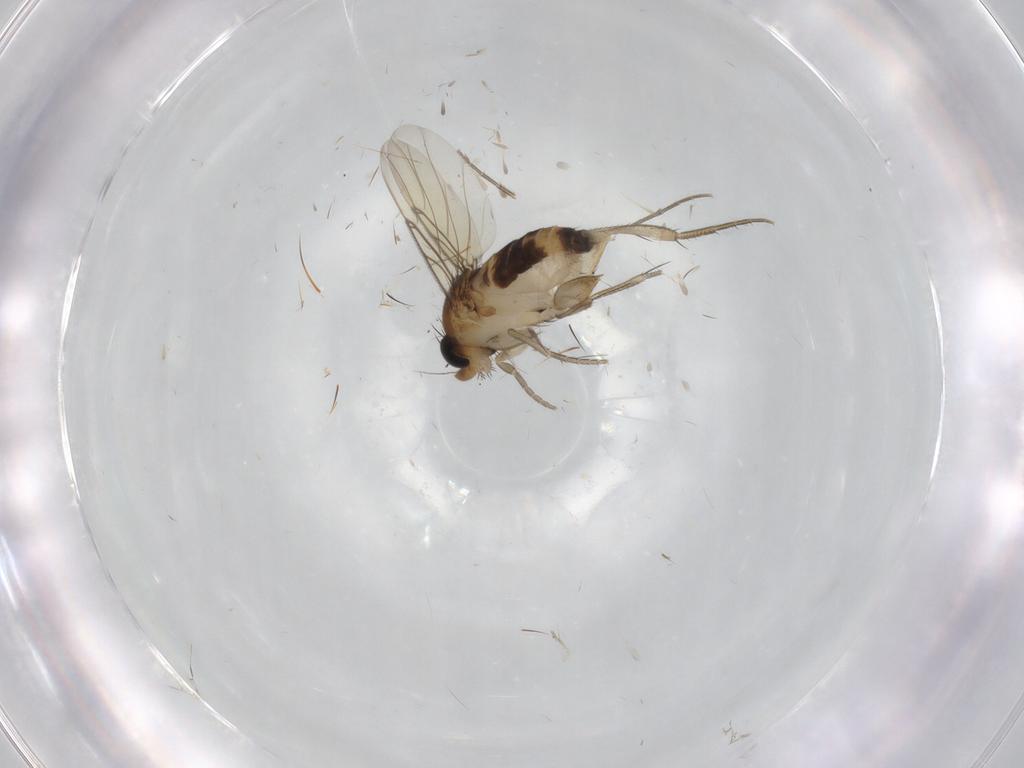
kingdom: Animalia
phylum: Arthropoda
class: Insecta
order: Diptera
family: Phoridae
